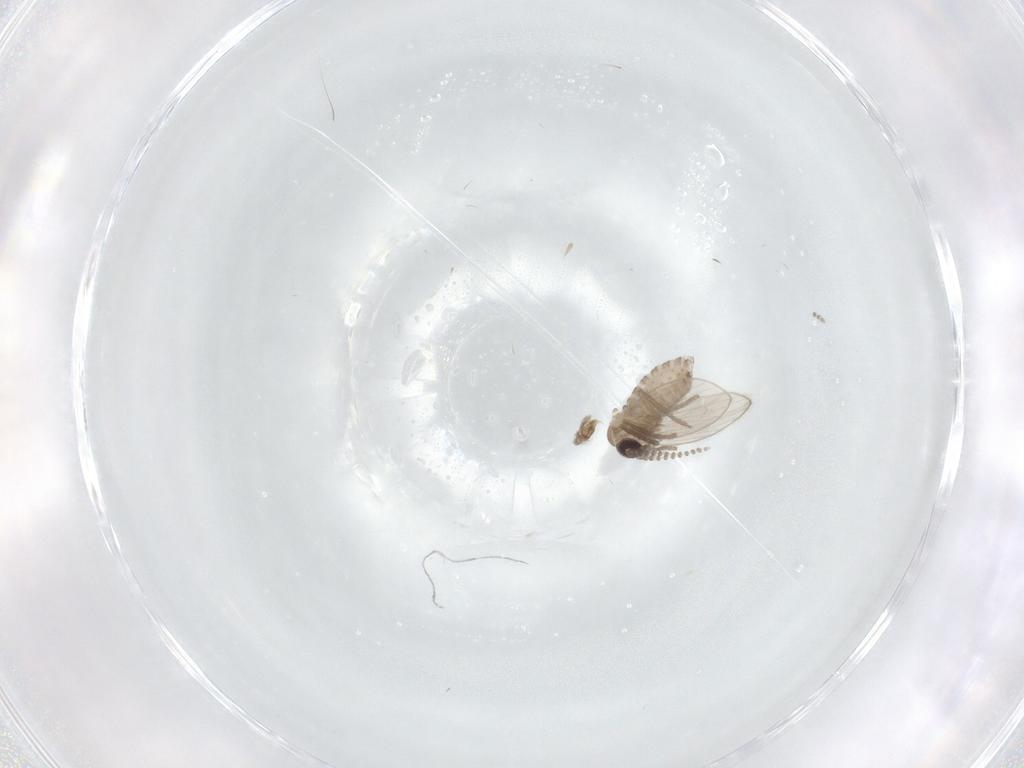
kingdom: Animalia
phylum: Arthropoda
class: Insecta
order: Diptera
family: Psychodidae
